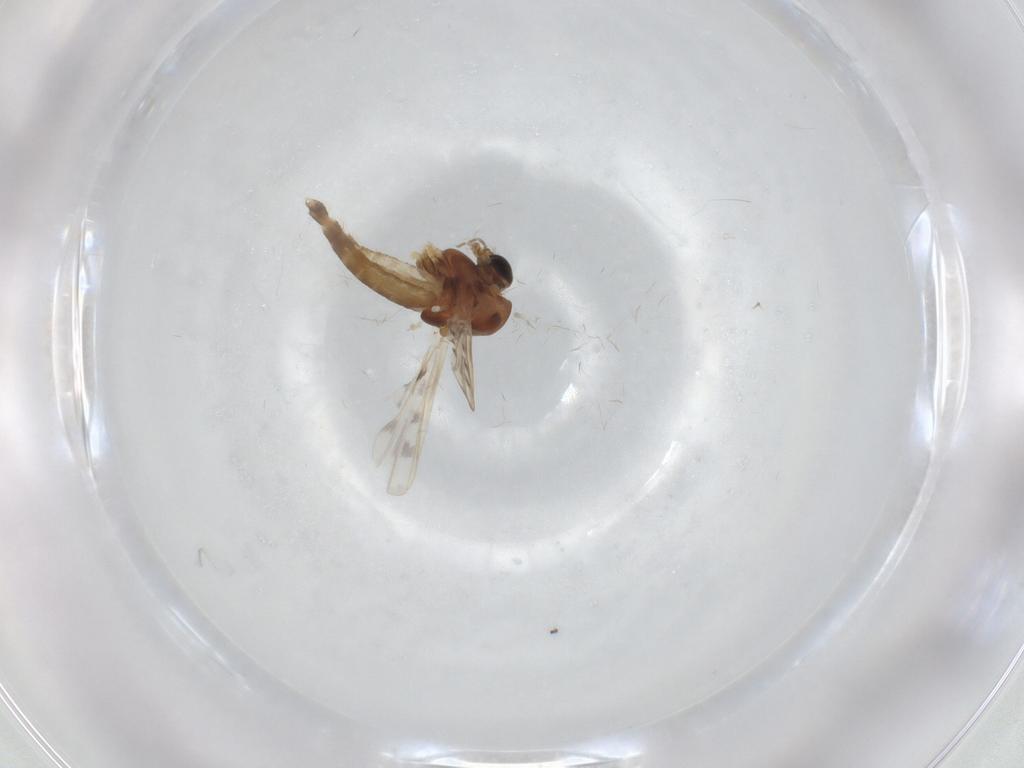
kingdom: Animalia
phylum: Arthropoda
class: Insecta
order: Diptera
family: Chironomidae
